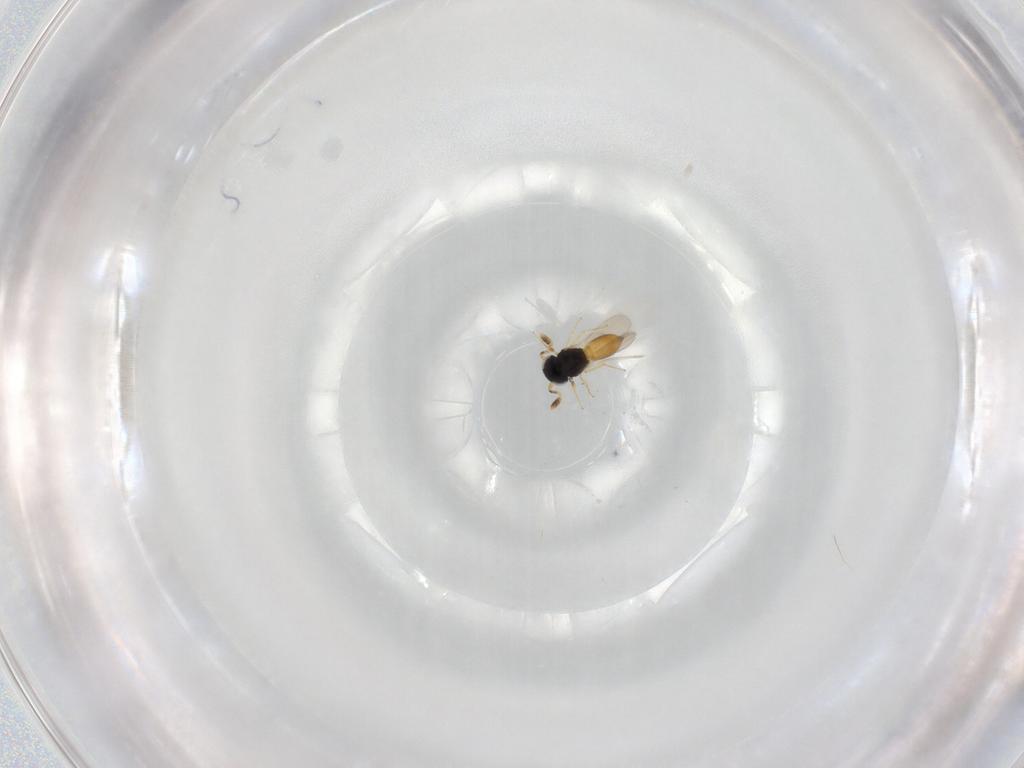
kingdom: Animalia
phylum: Arthropoda
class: Insecta
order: Hymenoptera
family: Scelionidae
